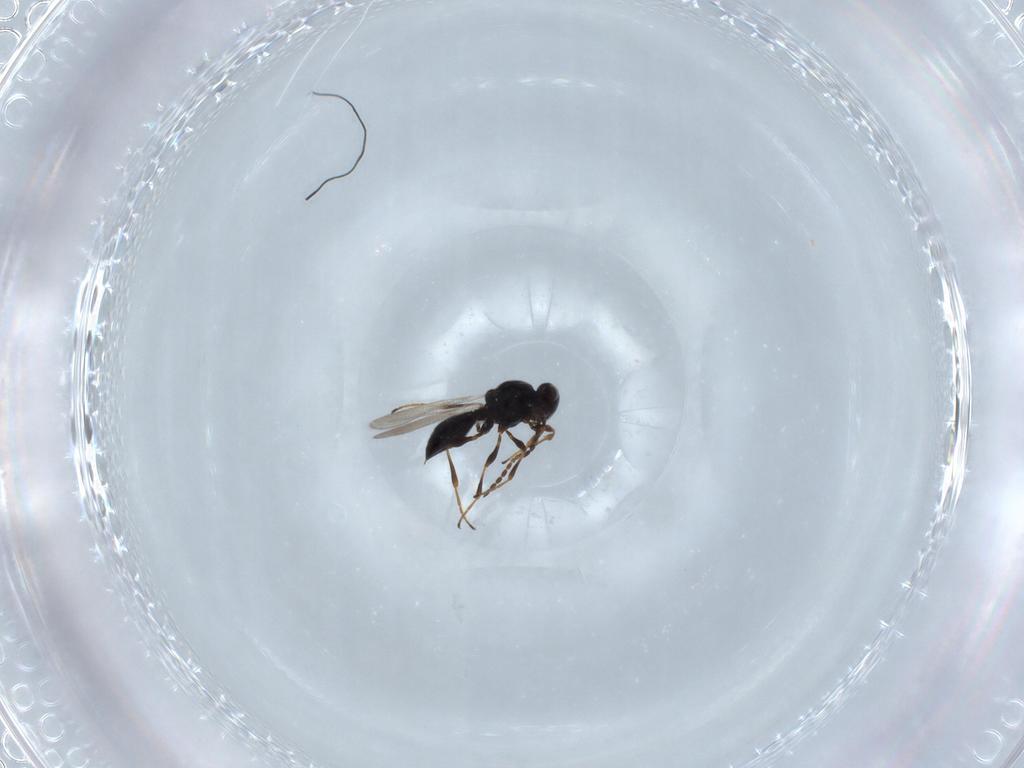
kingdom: Animalia
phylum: Arthropoda
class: Insecta
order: Hymenoptera
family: Platygastridae
